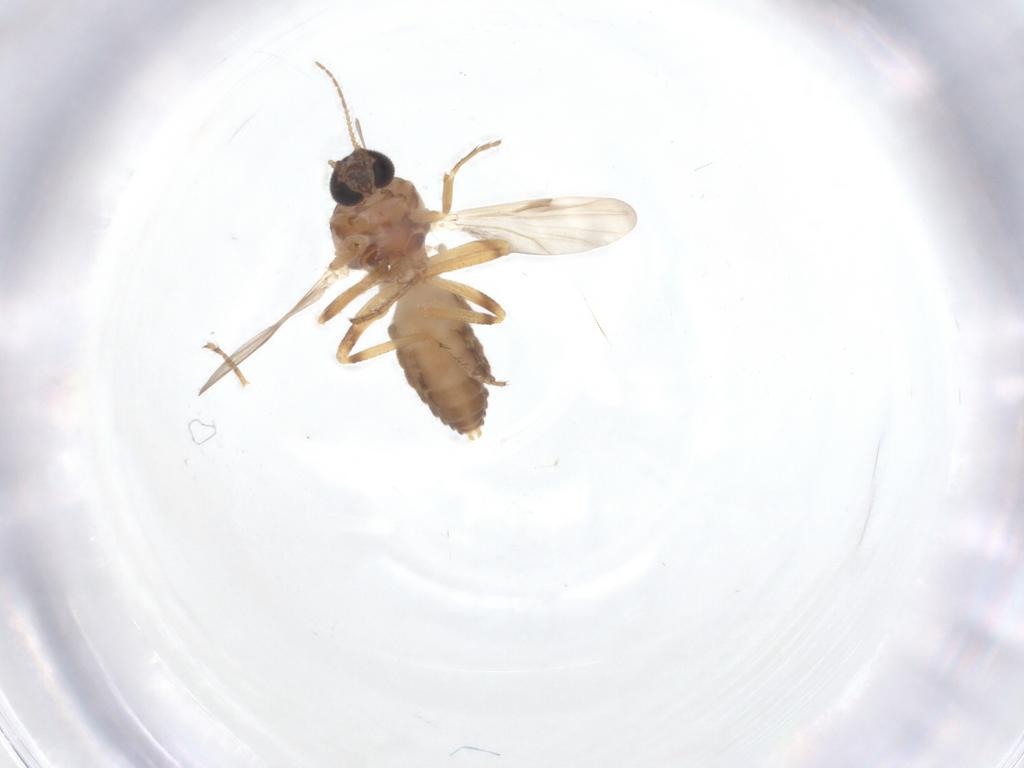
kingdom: Animalia
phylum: Arthropoda
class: Insecta
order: Diptera
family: Ceratopogonidae
